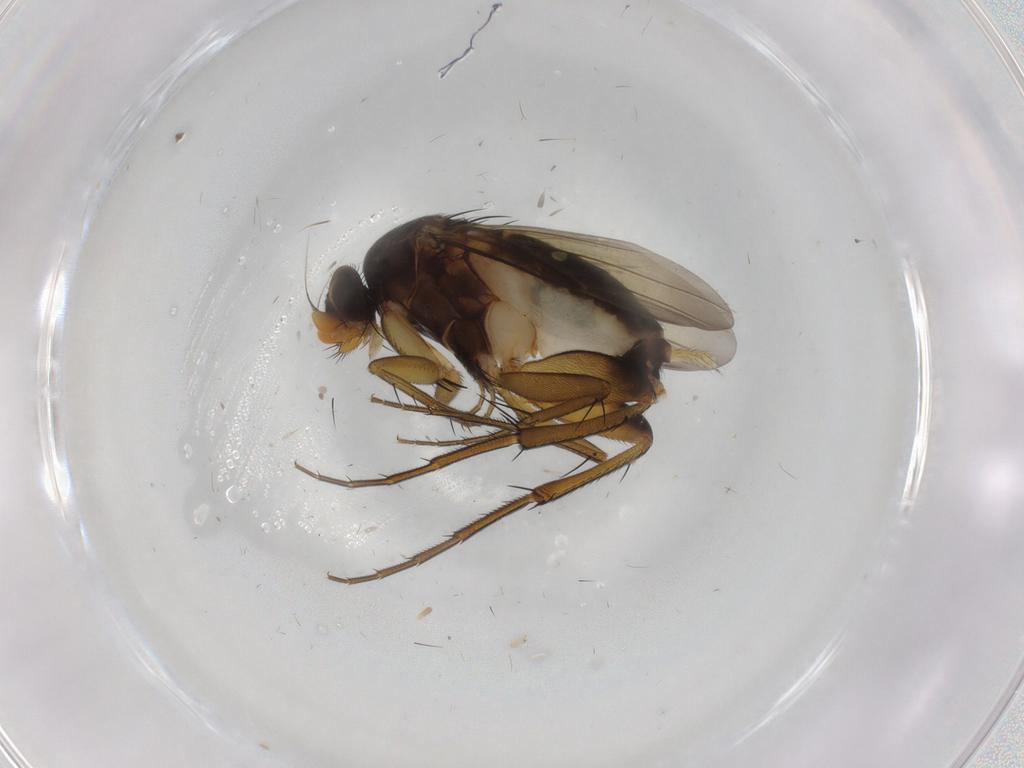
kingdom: Animalia
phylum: Arthropoda
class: Insecta
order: Diptera
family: Phoridae
